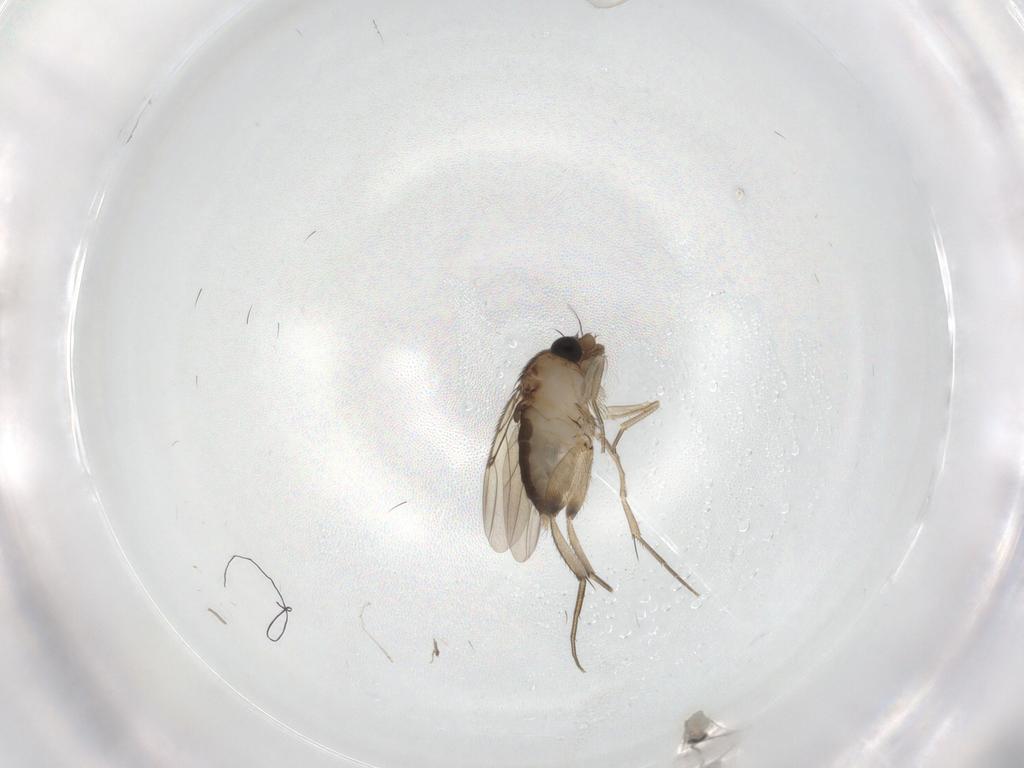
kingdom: Animalia
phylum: Arthropoda
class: Insecta
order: Diptera
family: Phoridae
